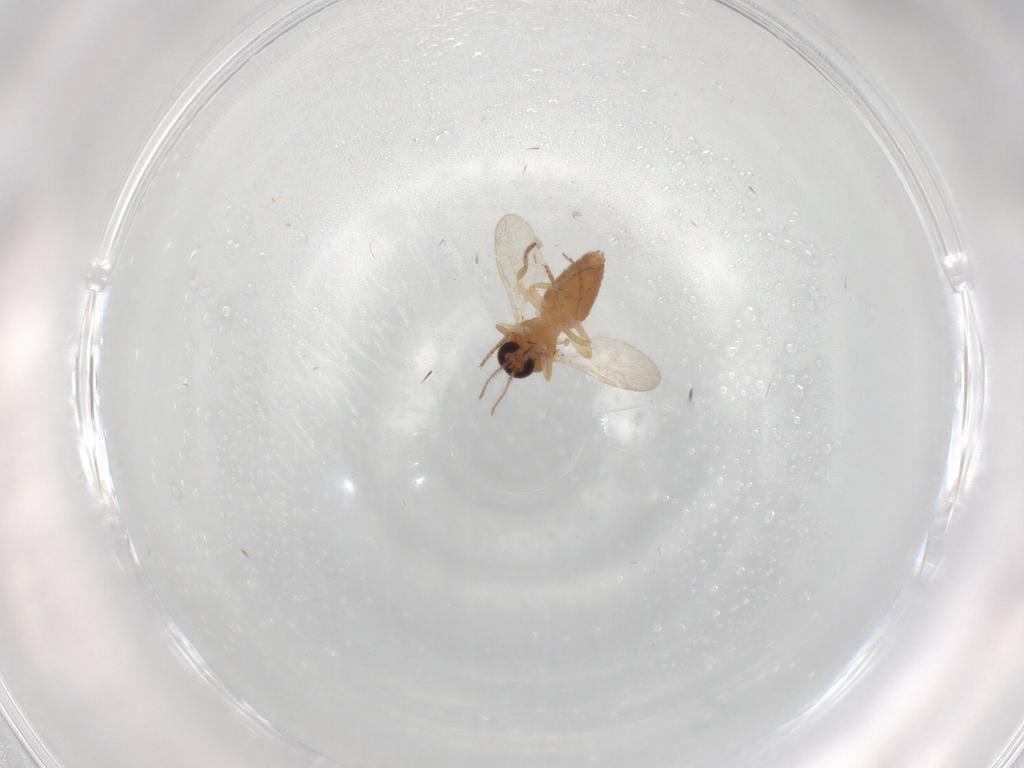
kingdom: Animalia
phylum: Arthropoda
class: Insecta
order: Diptera
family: Ceratopogonidae
